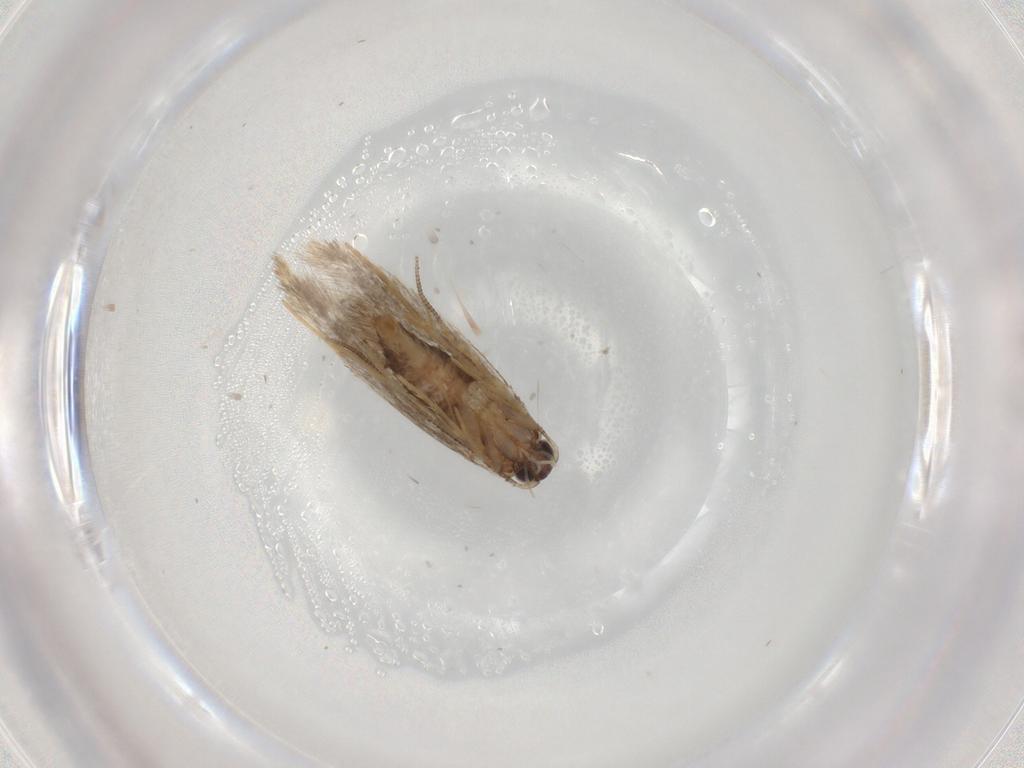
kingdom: Animalia
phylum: Arthropoda
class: Insecta
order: Lepidoptera
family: Tineidae
